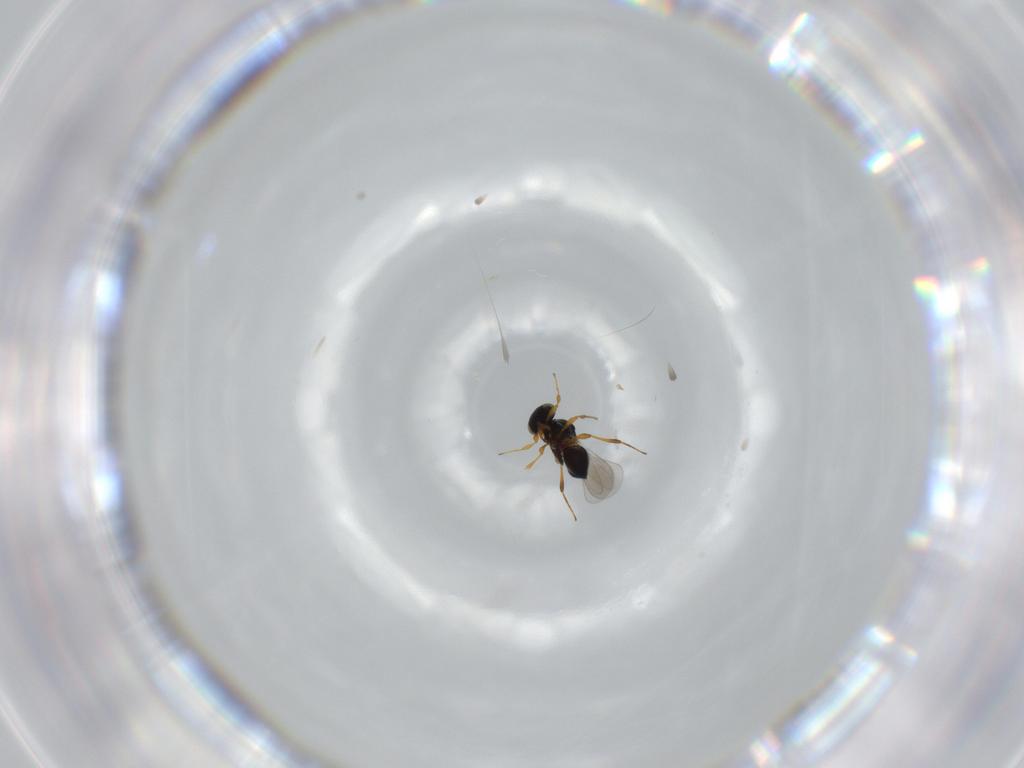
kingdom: Animalia
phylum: Arthropoda
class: Insecta
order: Hymenoptera
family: Platygastridae
